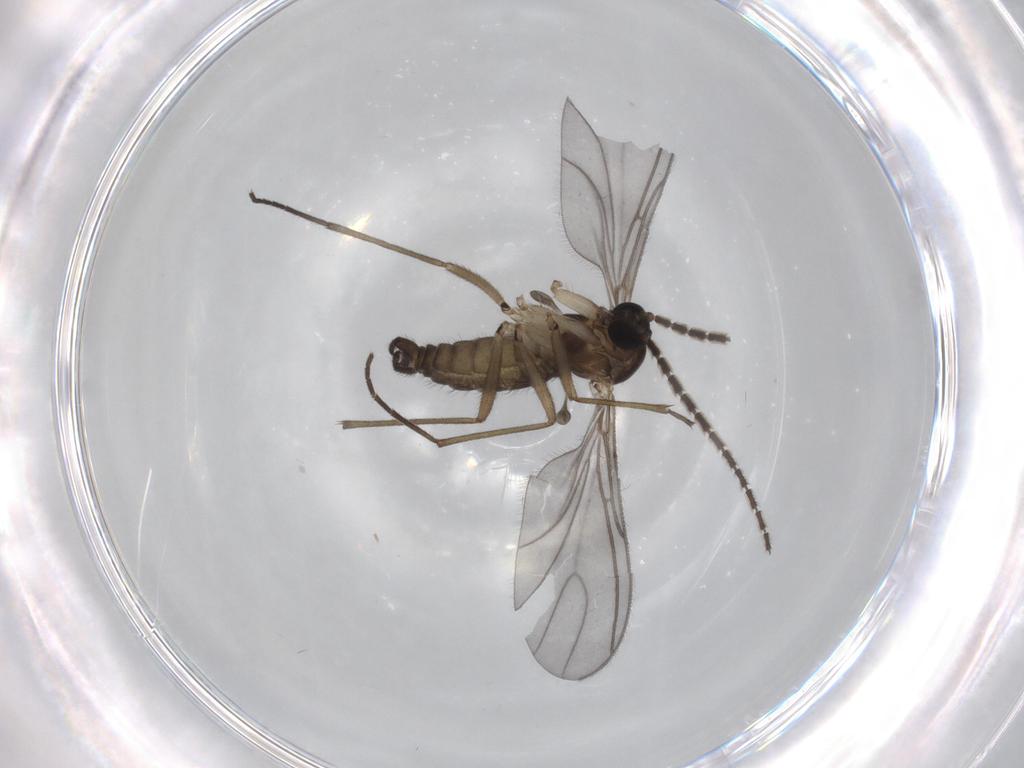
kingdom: Animalia
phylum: Arthropoda
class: Insecta
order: Diptera
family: Sciaridae
